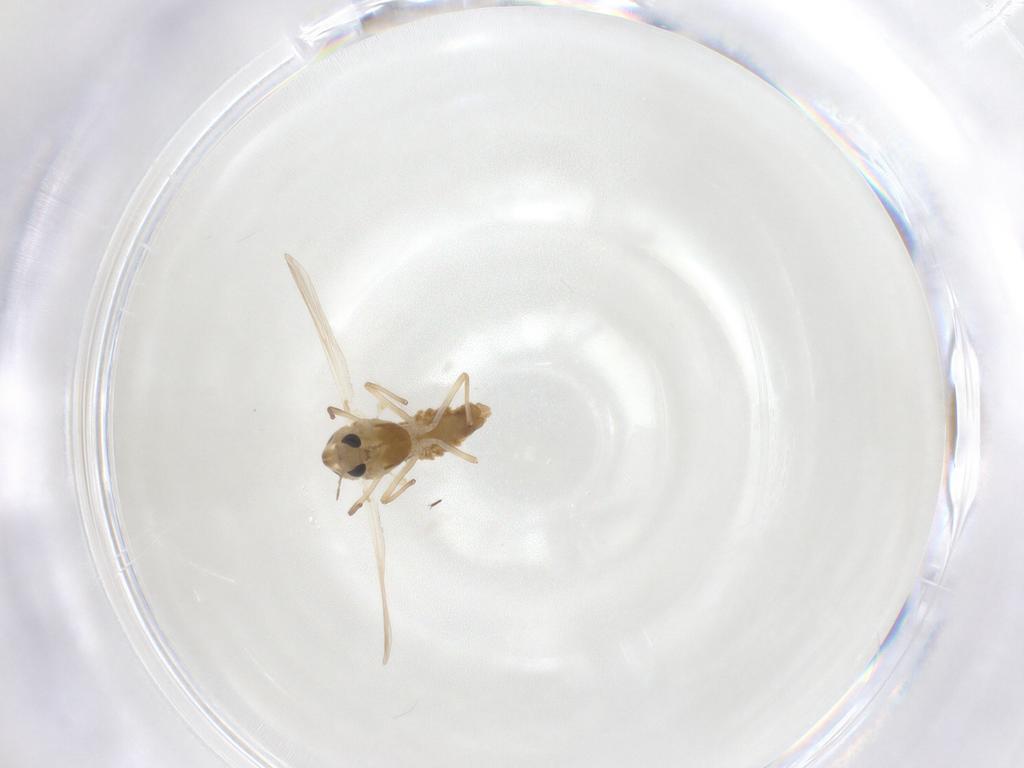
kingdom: Animalia
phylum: Arthropoda
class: Insecta
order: Diptera
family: Chironomidae
